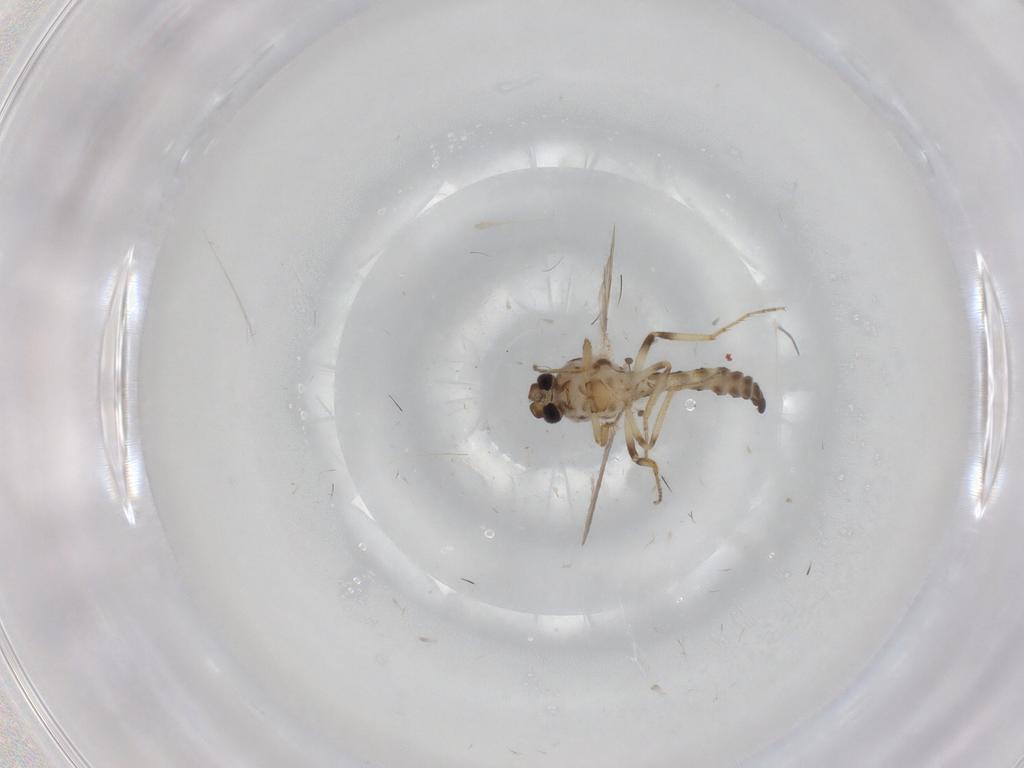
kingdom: Animalia
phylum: Arthropoda
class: Insecta
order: Diptera
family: Ceratopogonidae
